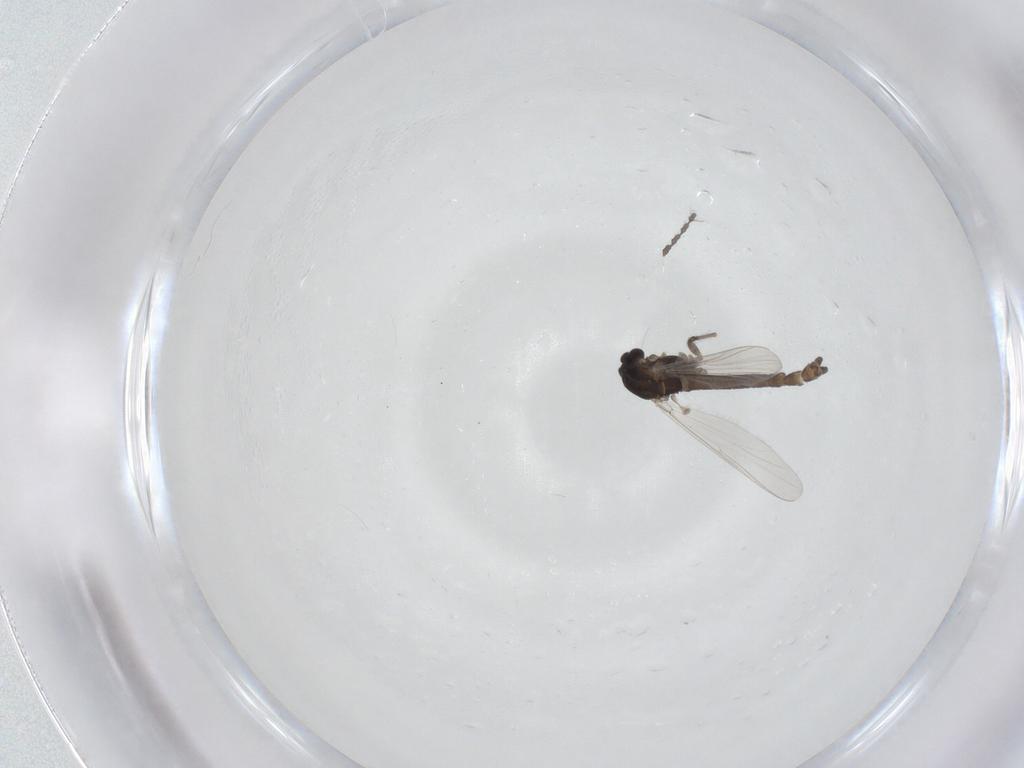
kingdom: Animalia
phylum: Arthropoda
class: Insecta
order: Diptera
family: Chironomidae
